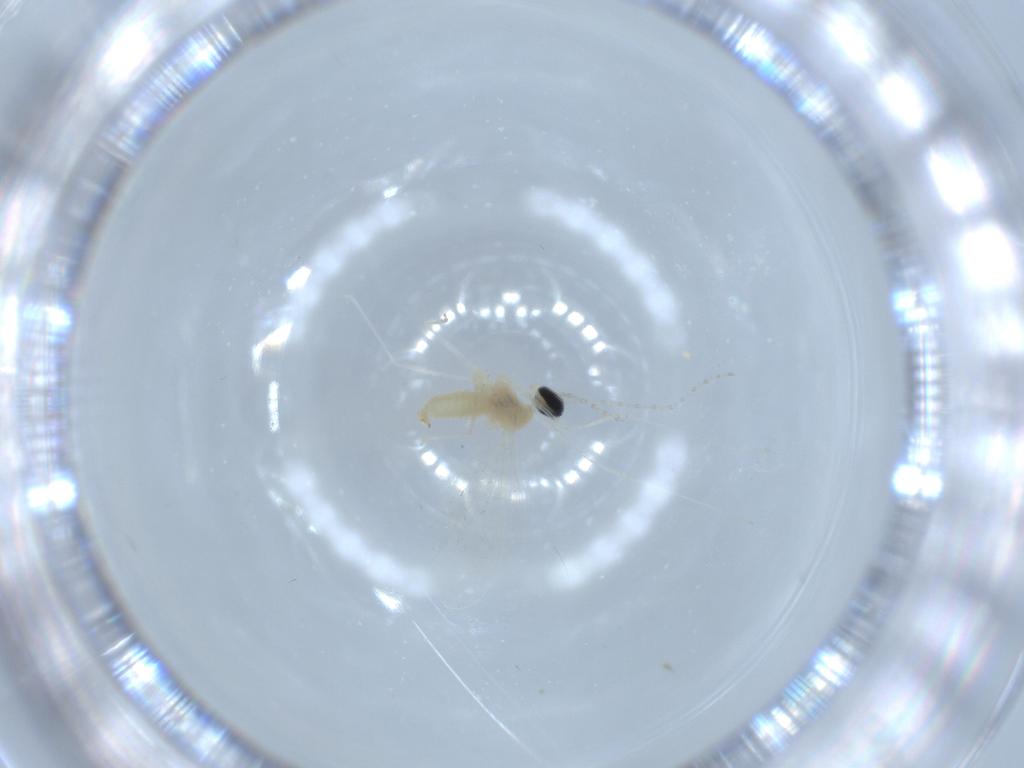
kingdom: Animalia
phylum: Arthropoda
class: Insecta
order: Diptera
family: Cecidomyiidae
